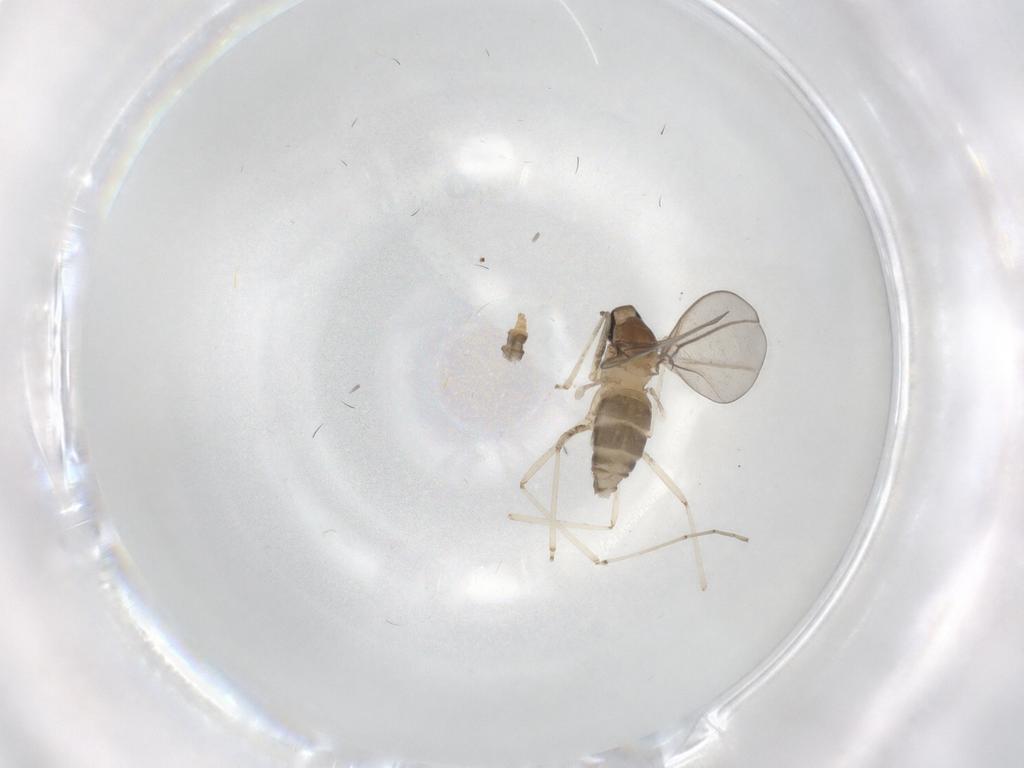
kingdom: Animalia
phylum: Arthropoda
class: Insecta
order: Diptera
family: Cecidomyiidae
